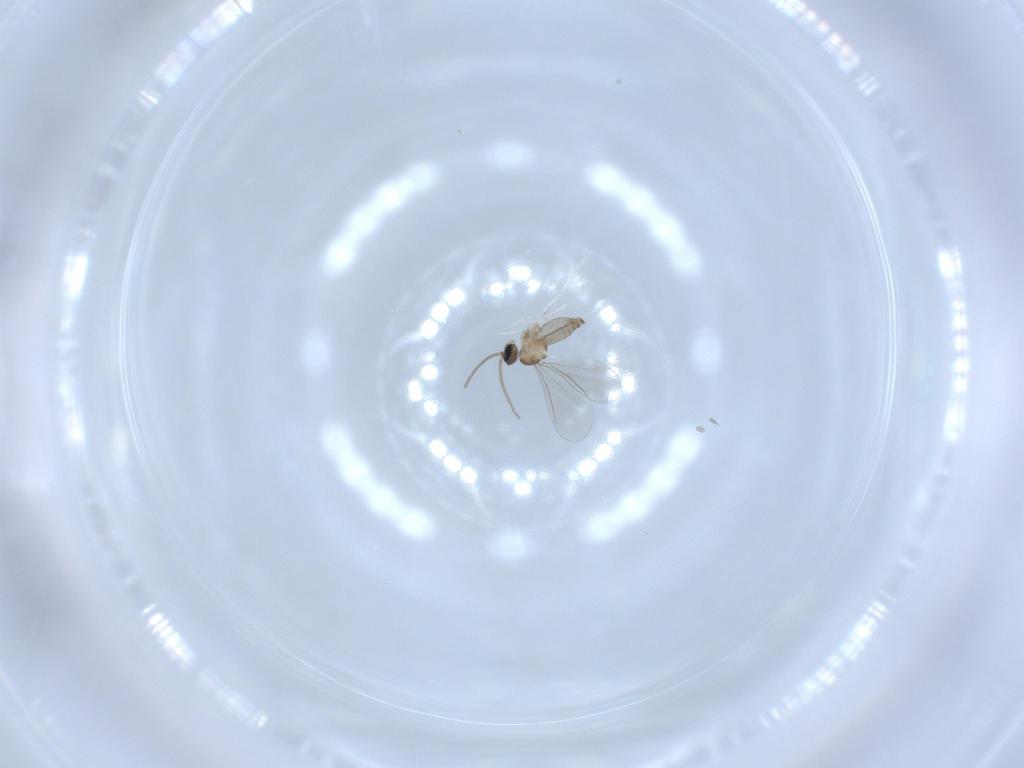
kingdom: Animalia
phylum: Arthropoda
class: Insecta
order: Diptera
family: Cecidomyiidae
